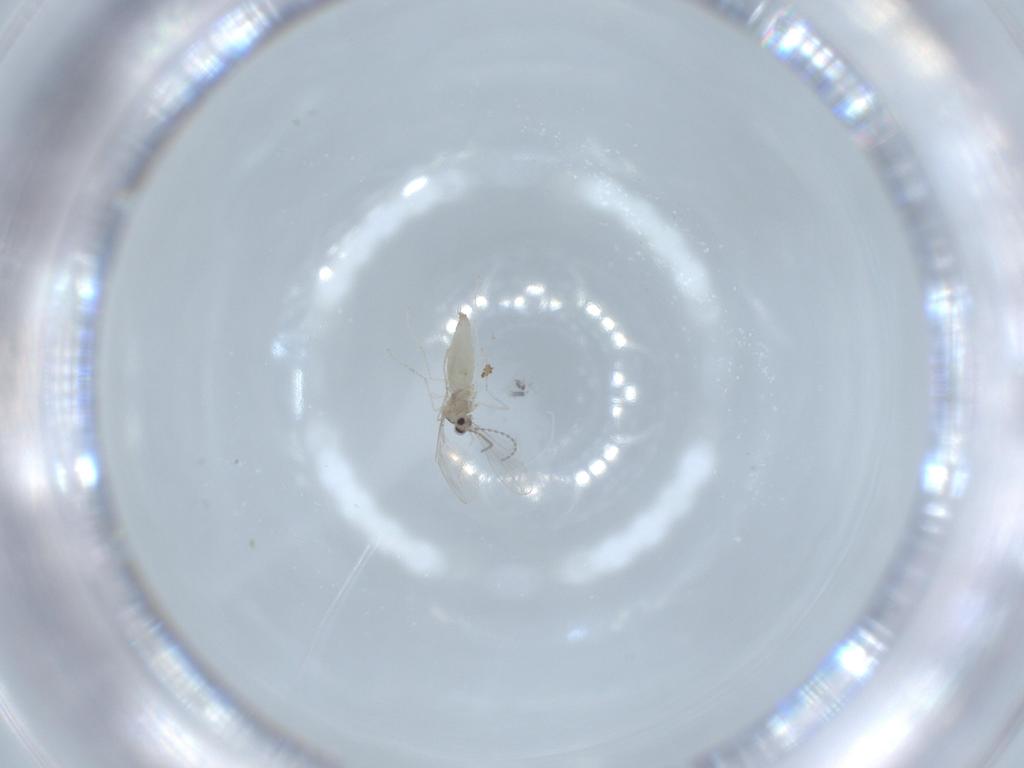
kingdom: Animalia
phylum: Arthropoda
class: Insecta
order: Diptera
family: Cecidomyiidae
